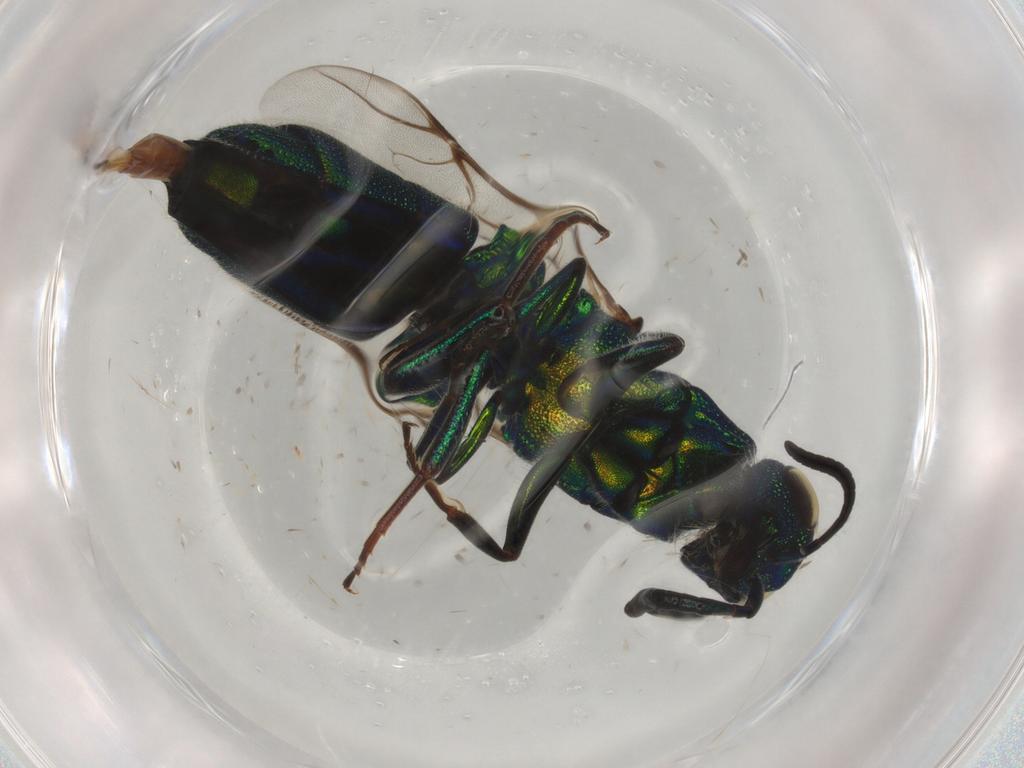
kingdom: Animalia
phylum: Arthropoda
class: Insecta
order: Hymenoptera
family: Chrysididae
